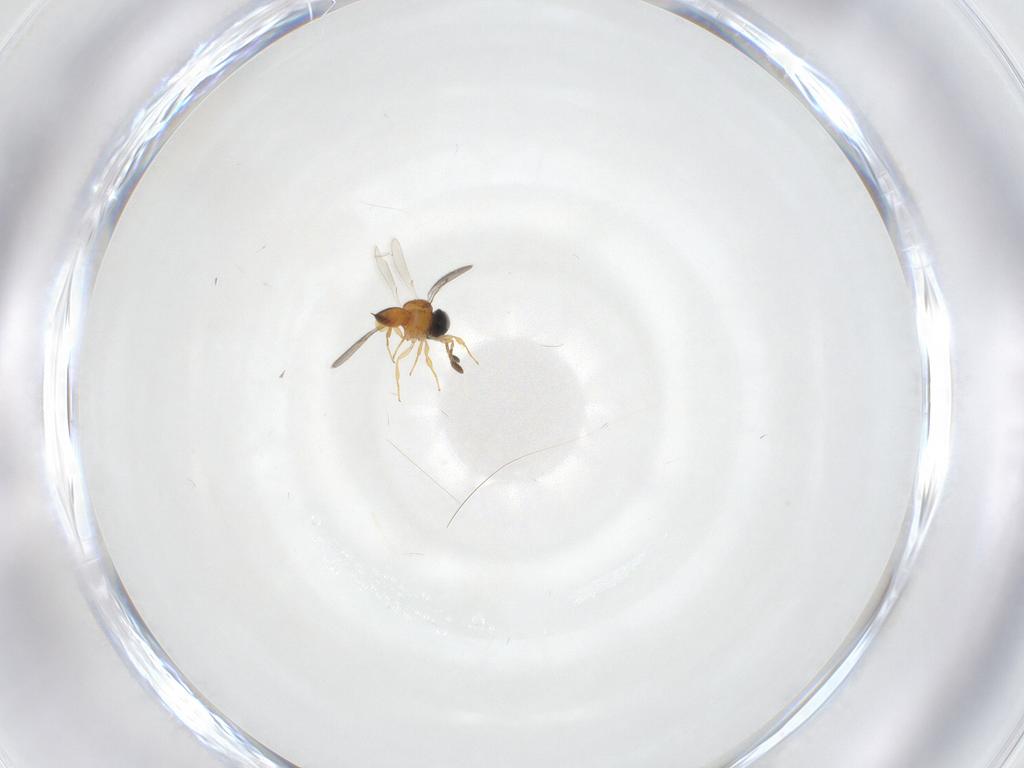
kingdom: Animalia
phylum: Arthropoda
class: Insecta
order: Hymenoptera
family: Scelionidae
